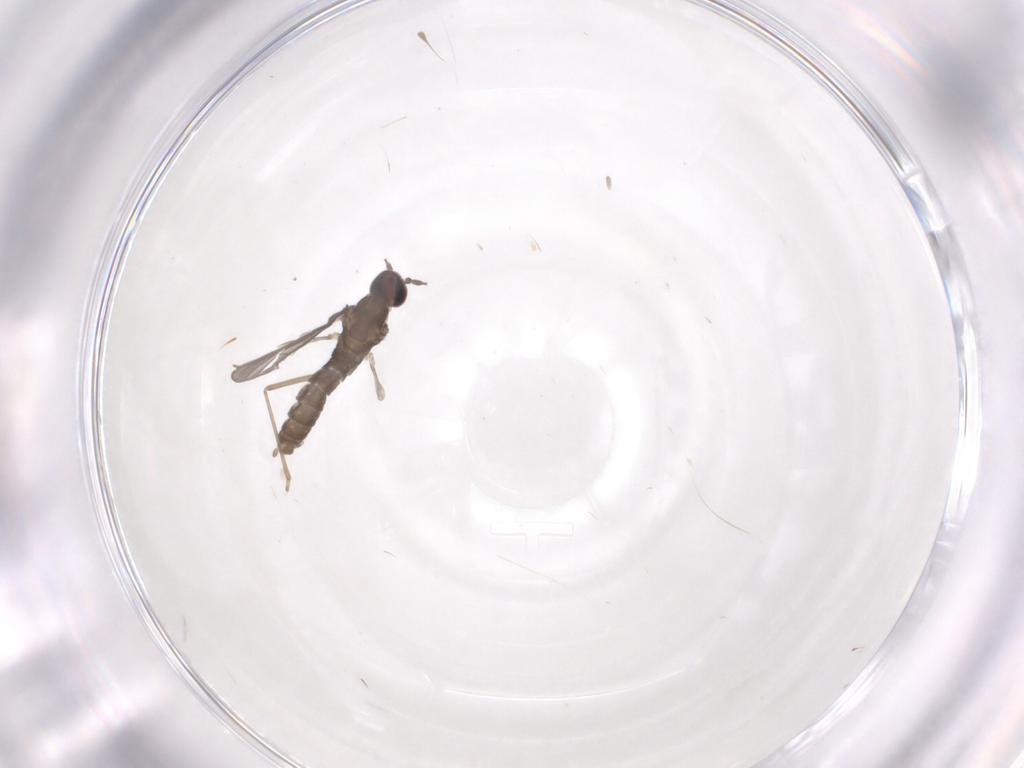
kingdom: Animalia
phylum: Arthropoda
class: Insecta
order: Diptera
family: Cecidomyiidae
